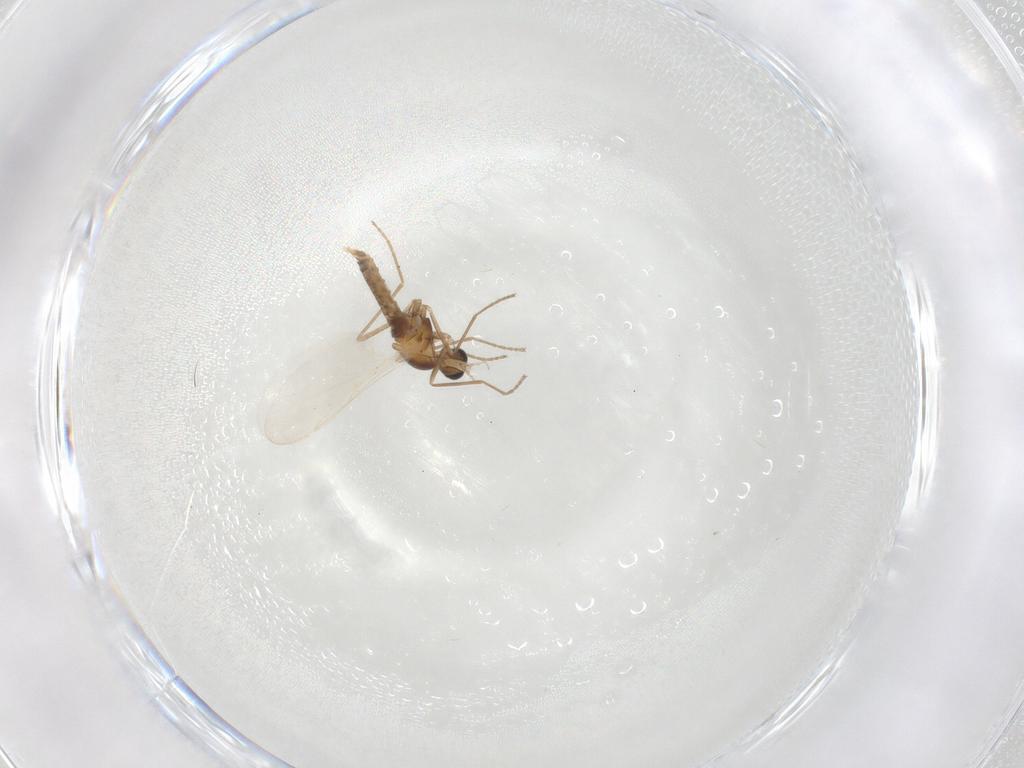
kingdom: Animalia
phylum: Arthropoda
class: Insecta
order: Diptera
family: Cecidomyiidae
